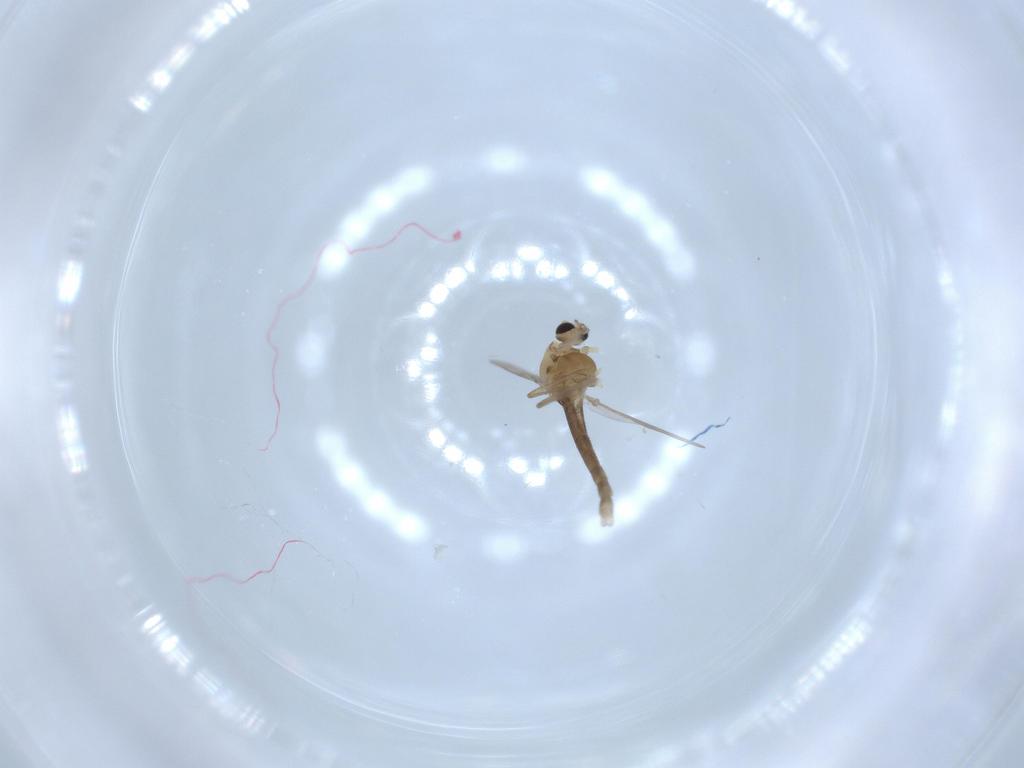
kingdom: Animalia
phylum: Arthropoda
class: Insecta
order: Diptera
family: Chironomidae
